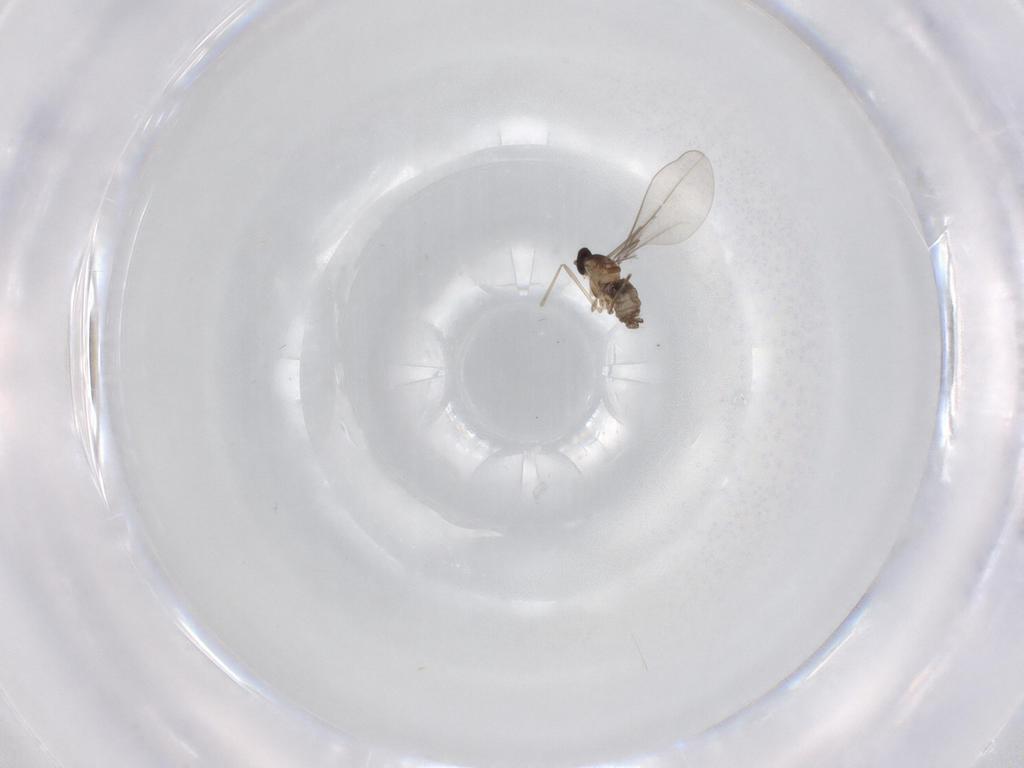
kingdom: Animalia
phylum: Arthropoda
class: Insecta
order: Diptera
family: Cecidomyiidae
